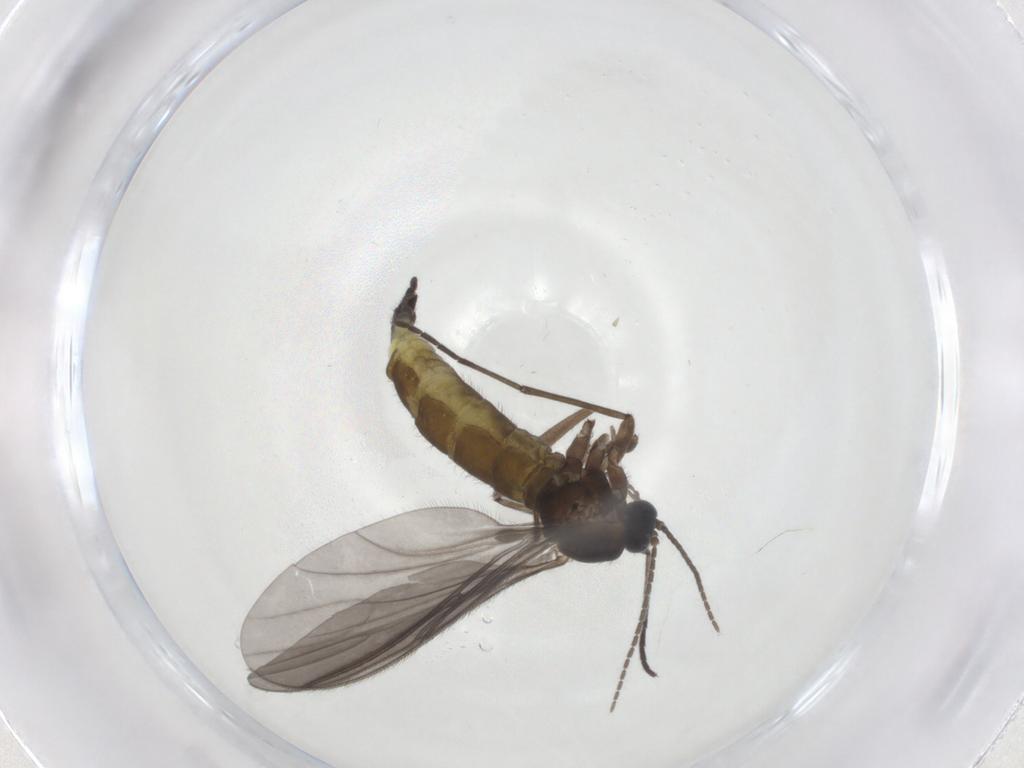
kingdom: Animalia
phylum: Arthropoda
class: Insecta
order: Diptera
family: Sciaridae
